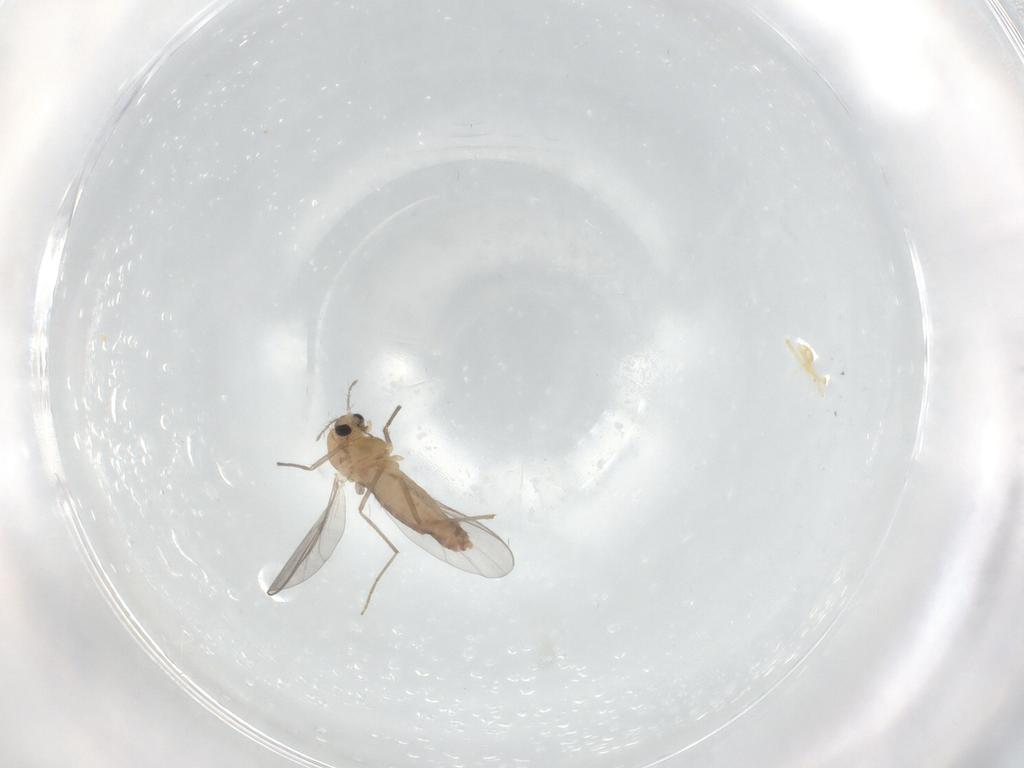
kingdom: Animalia
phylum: Arthropoda
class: Insecta
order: Diptera
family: Chironomidae
